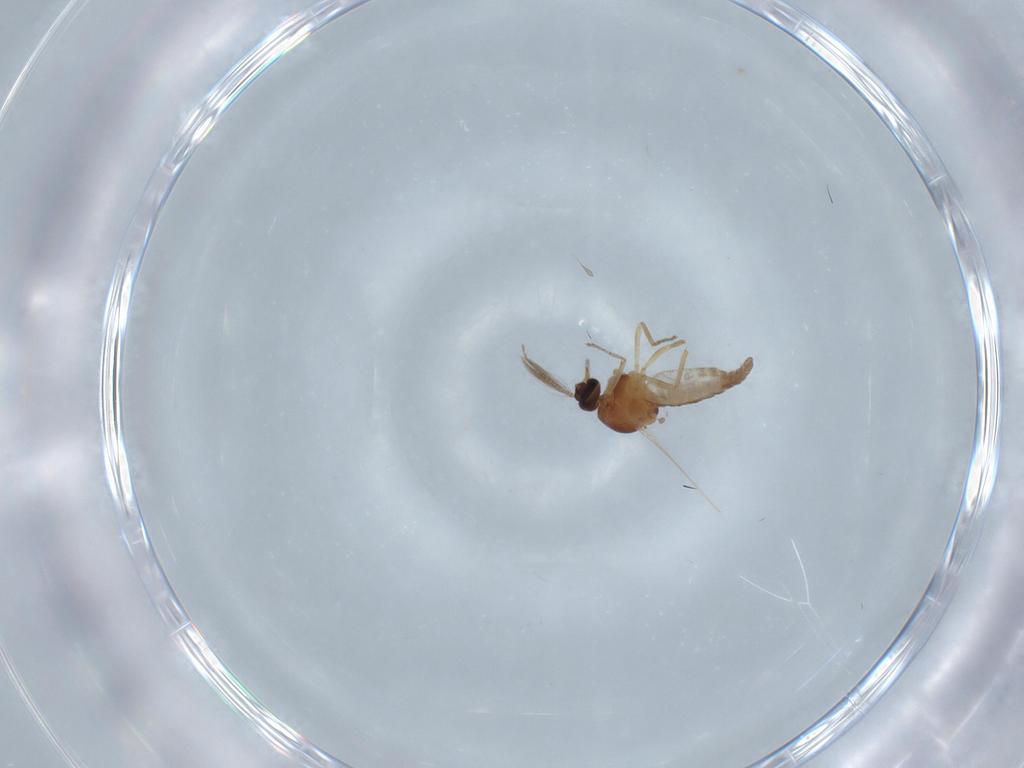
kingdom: Animalia
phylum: Arthropoda
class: Insecta
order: Diptera
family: Ceratopogonidae
